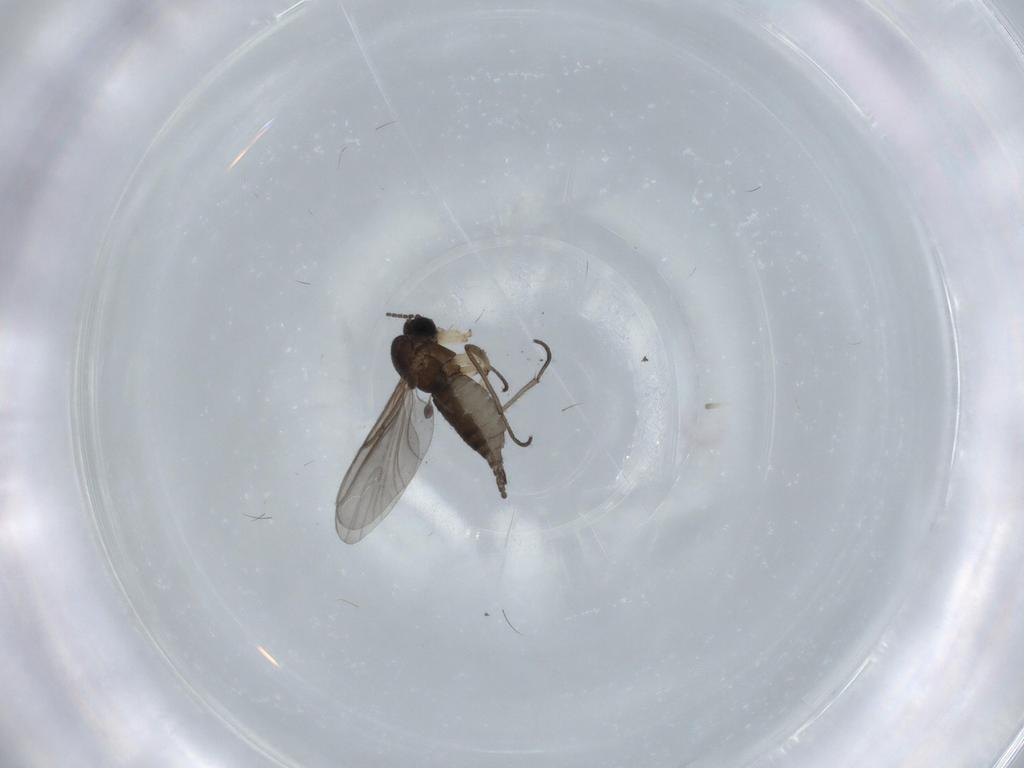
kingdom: Animalia
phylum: Arthropoda
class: Insecta
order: Diptera
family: Sciaridae
